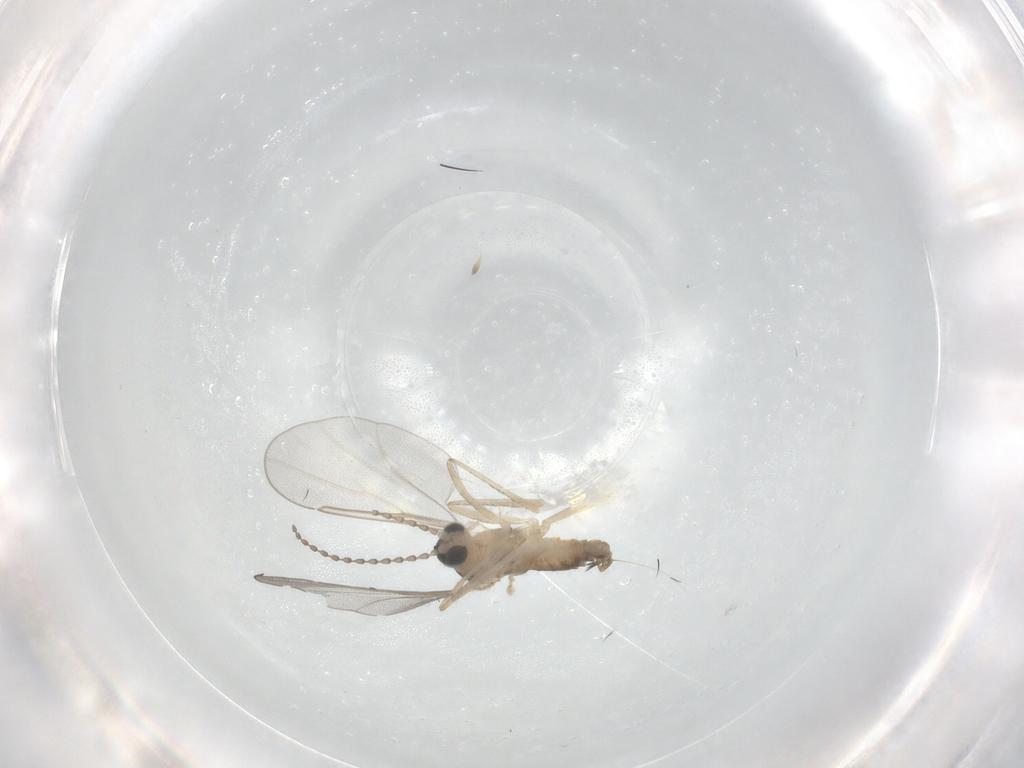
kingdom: Animalia
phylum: Arthropoda
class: Insecta
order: Diptera
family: Cecidomyiidae
